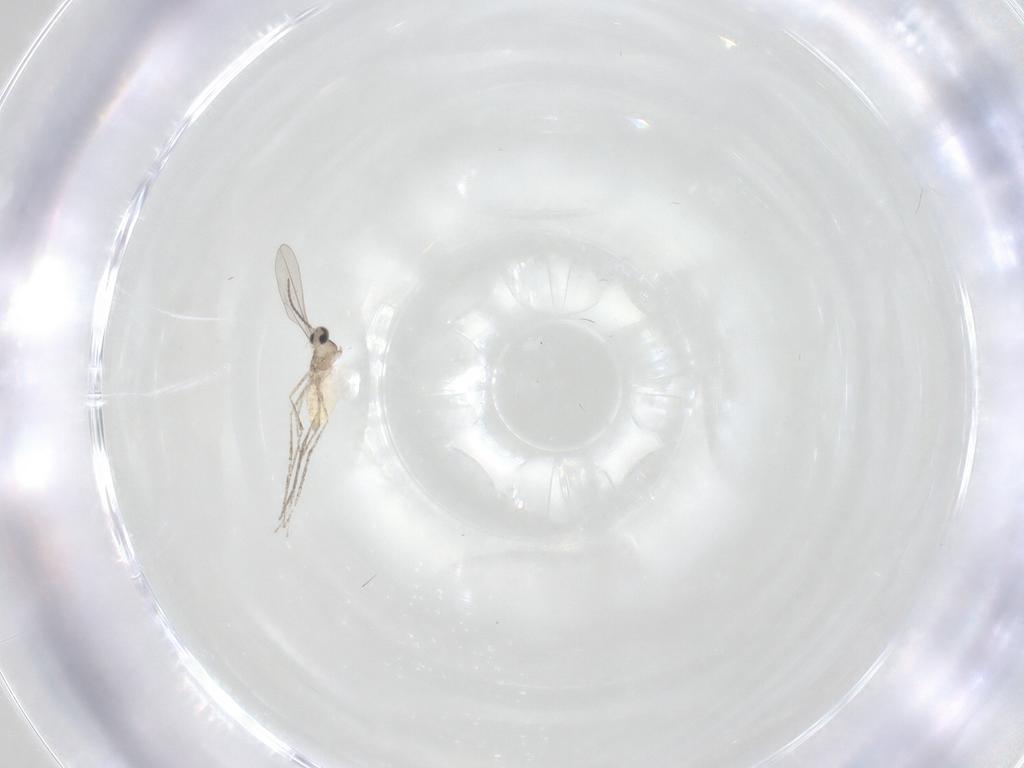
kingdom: Animalia
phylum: Arthropoda
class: Insecta
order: Diptera
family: Cecidomyiidae
